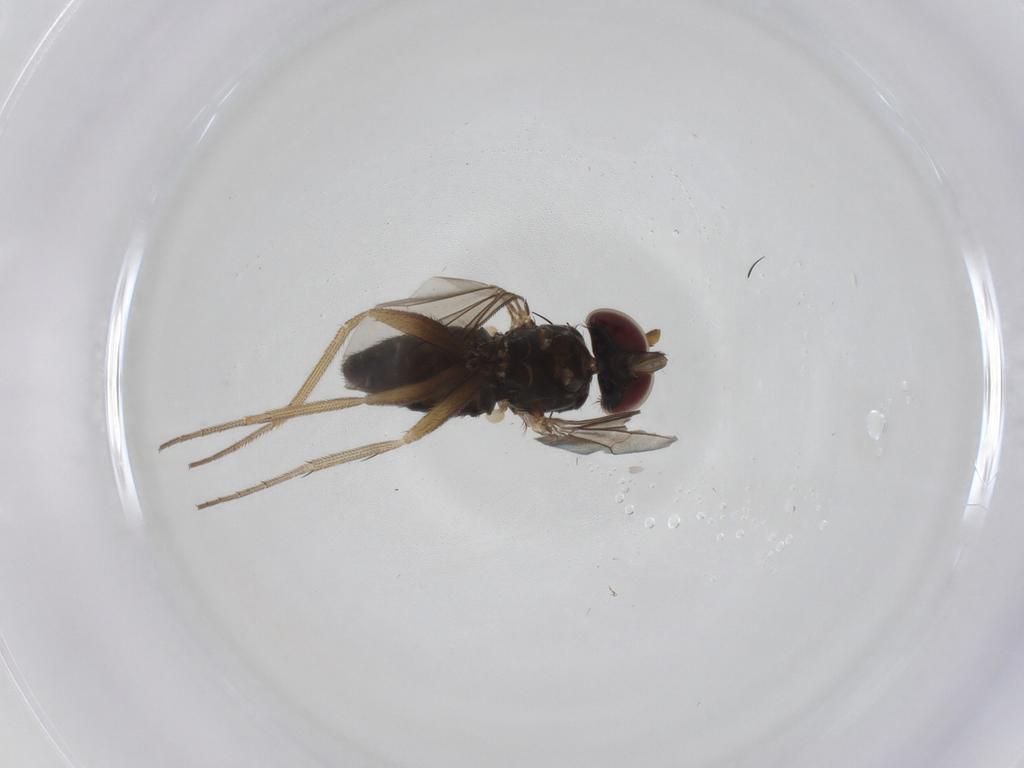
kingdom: Animalia
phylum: Arthropoda
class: Insecta
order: Diptera
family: Dolichopodidae
